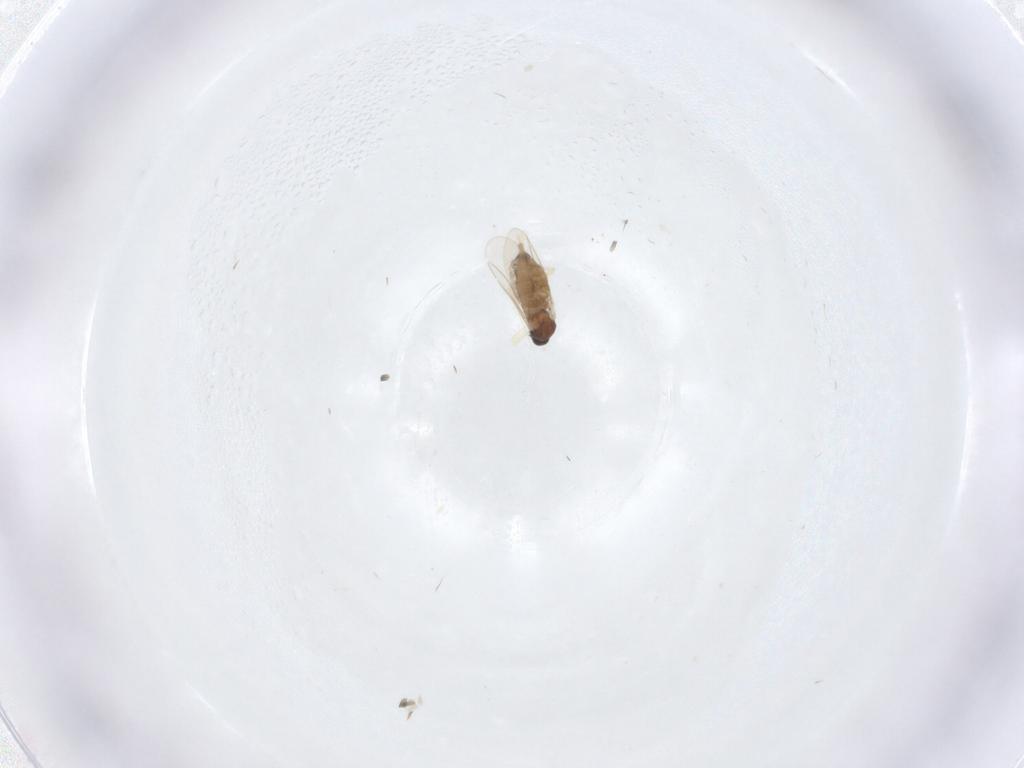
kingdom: Animalia
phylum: Arthropoda
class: Insecta
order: Diptera
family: Cecidomyiidae
